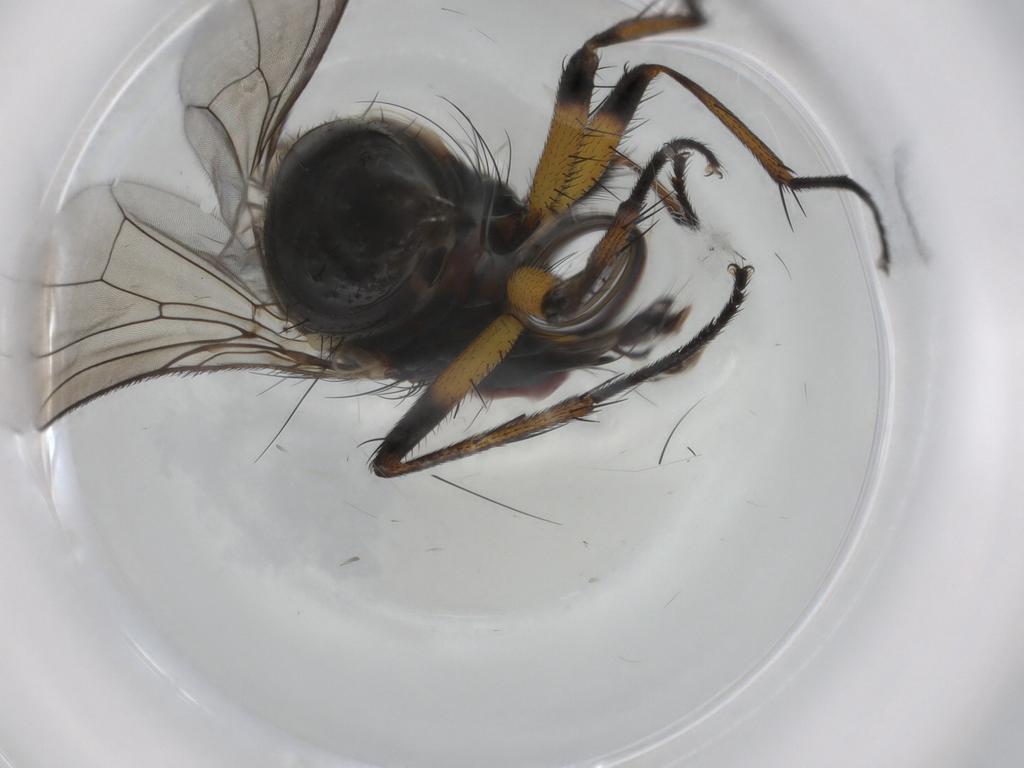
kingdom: Animalia
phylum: Arthropoda
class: Insecta
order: Diptera
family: Muscidae
